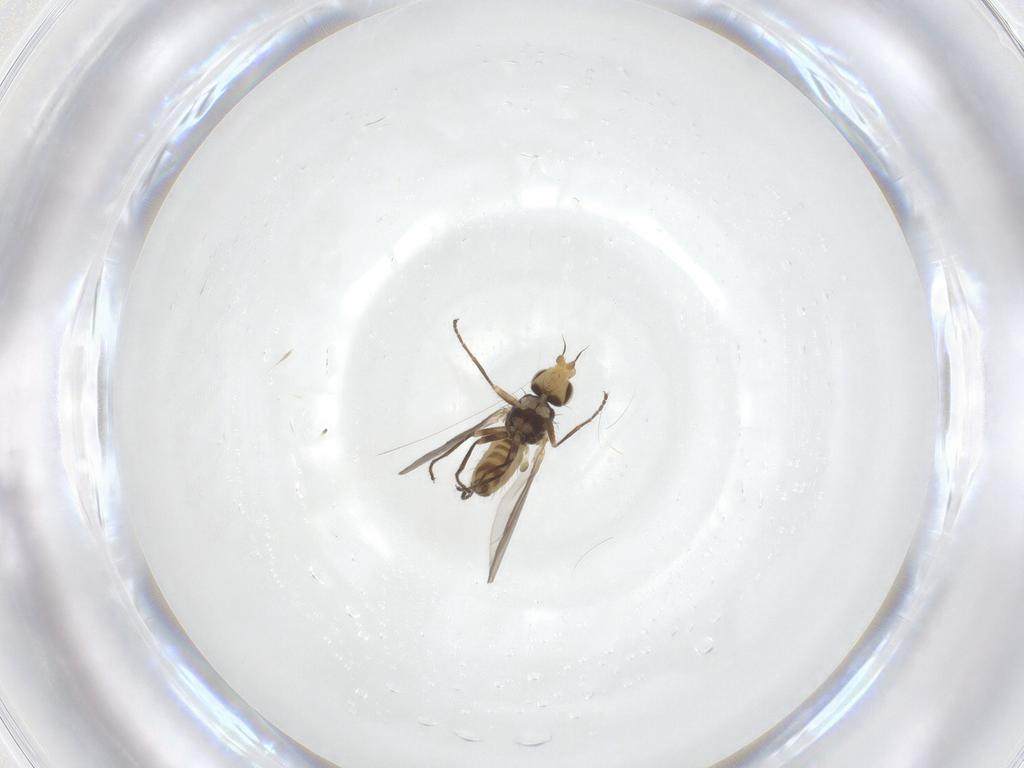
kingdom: Animalia
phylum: Arthropoda
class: Insecta
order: Diptera
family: Agromyzidae
